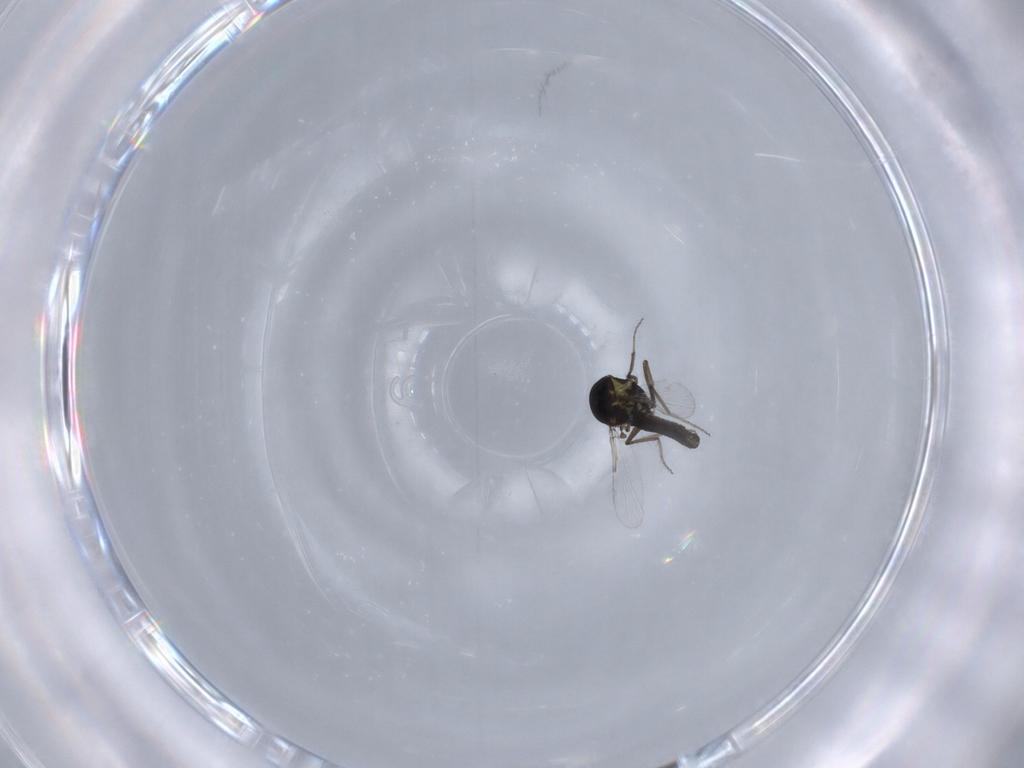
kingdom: Animalia
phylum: Arthropoda
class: Insecta
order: Diptera
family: Ceratopogonidae
